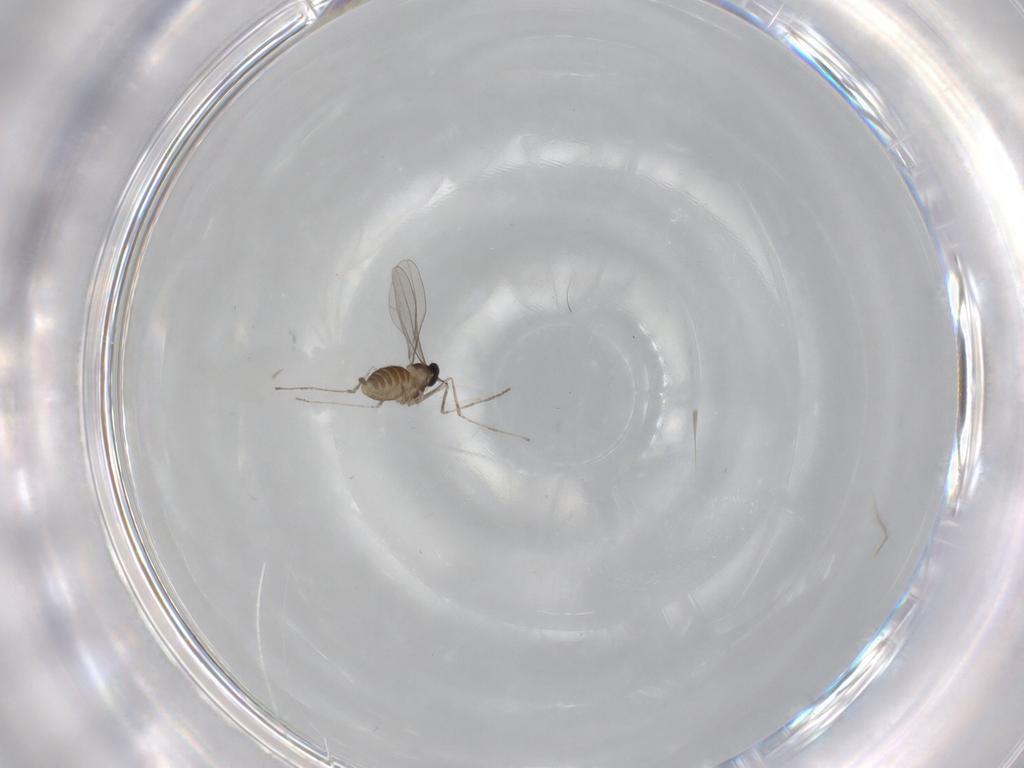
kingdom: Animalia
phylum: Arthropoda
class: Insecta
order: Diptera
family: Cecidomyiidae
